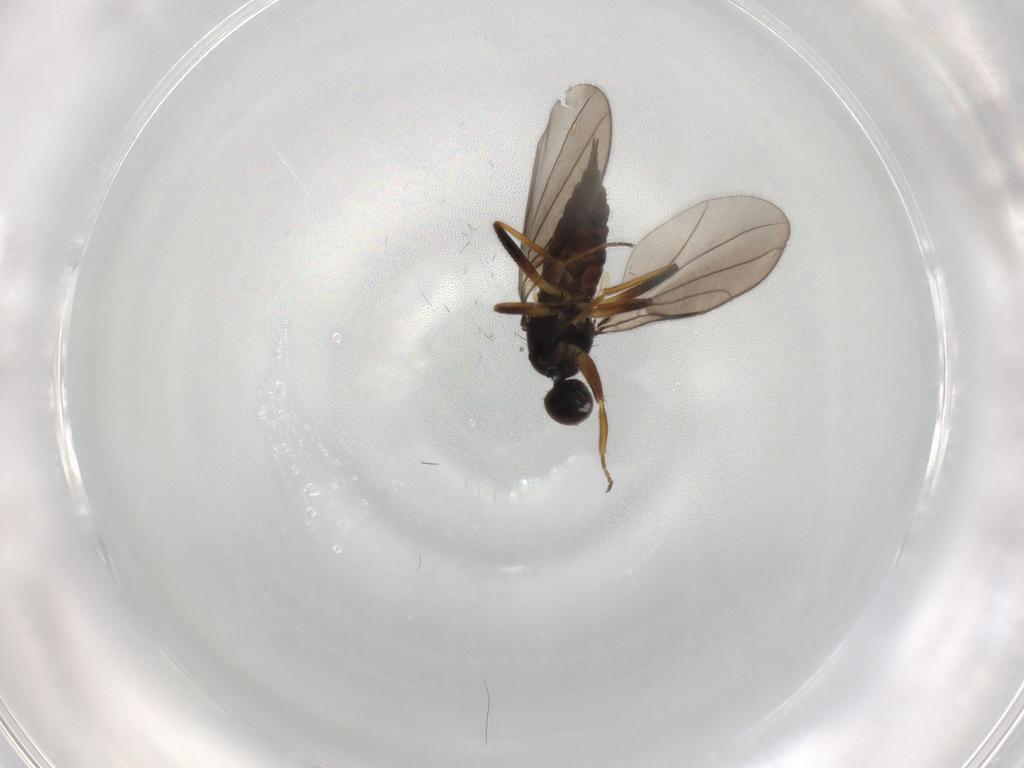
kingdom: Animalia
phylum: Arthropoda
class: Insecta
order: Diptera
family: Hybotidae
